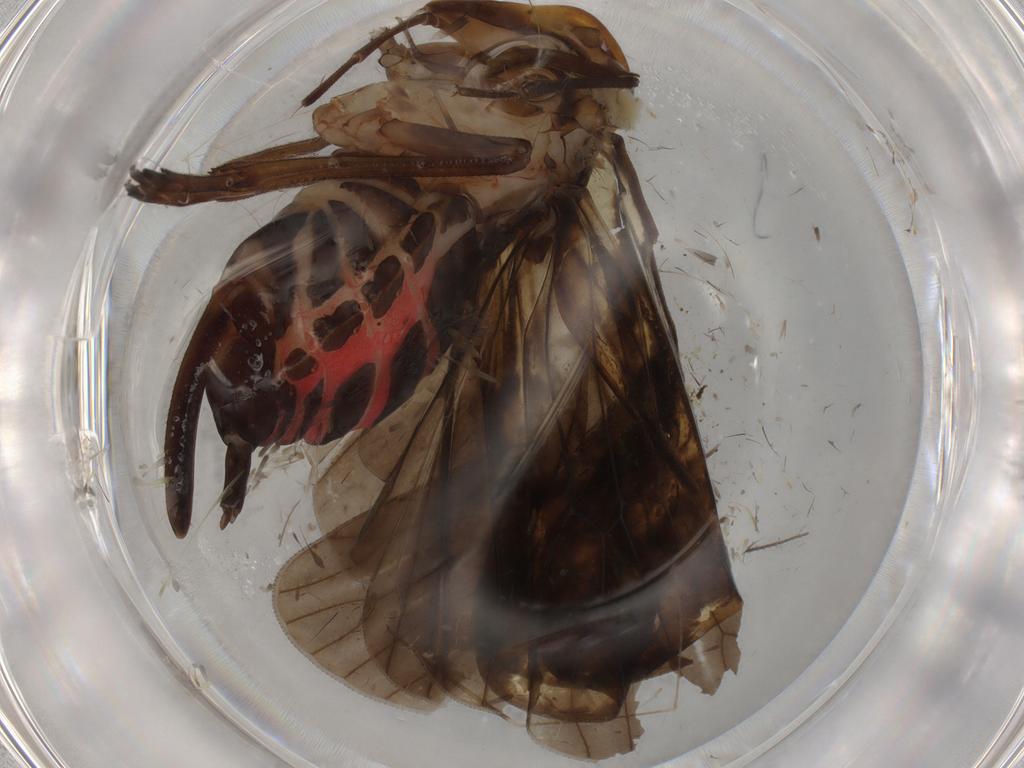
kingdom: Animalia
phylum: Arthropoda
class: Insecta
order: Hemiptera
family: Cixiidae
